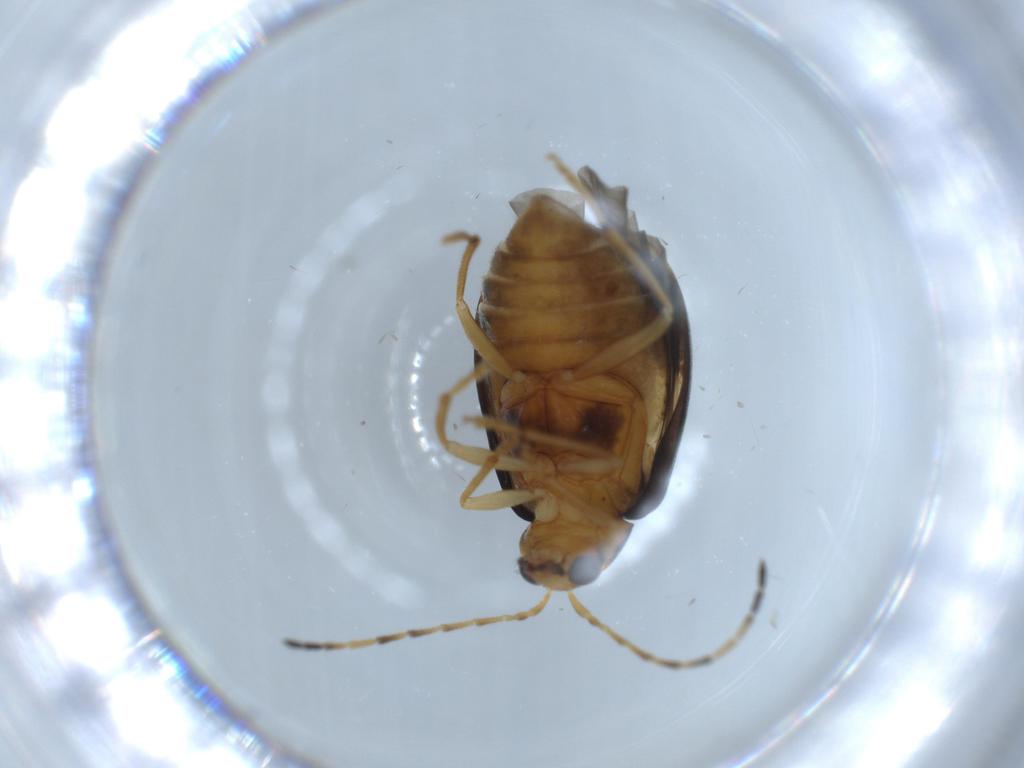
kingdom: Animalia
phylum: Arthropoda
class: Insecta
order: Coleoptera
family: Chrysomelidae
